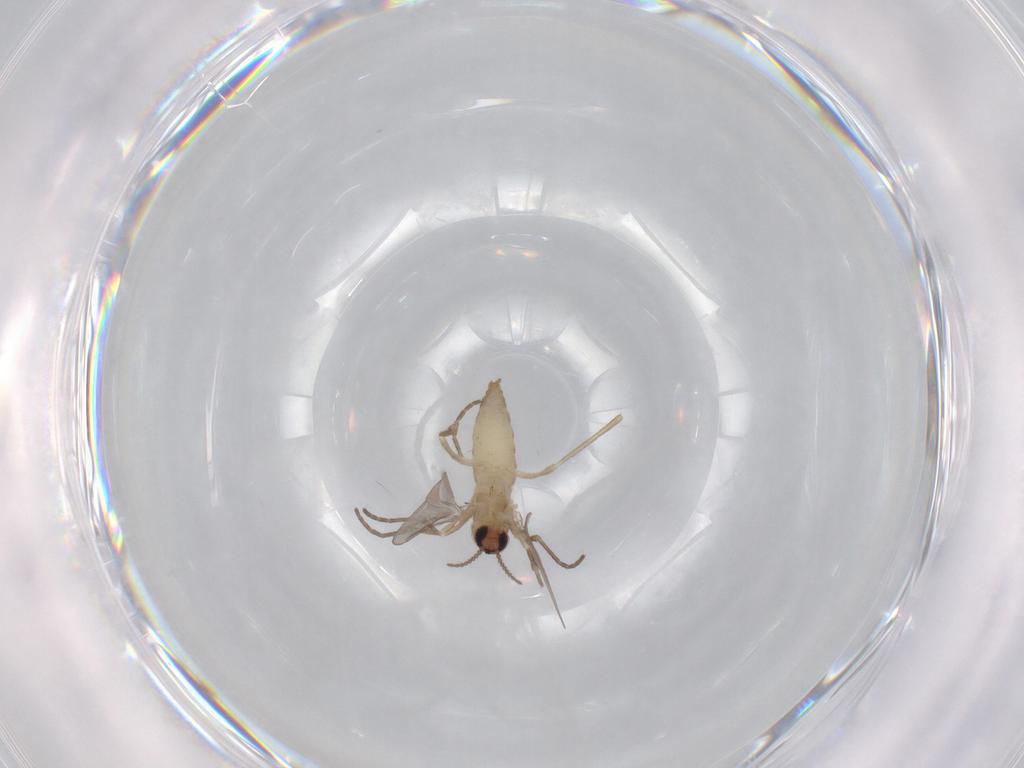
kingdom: Animalia
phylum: Arthropoda
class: Insecta
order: Diptera
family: Cecidomyiidae
